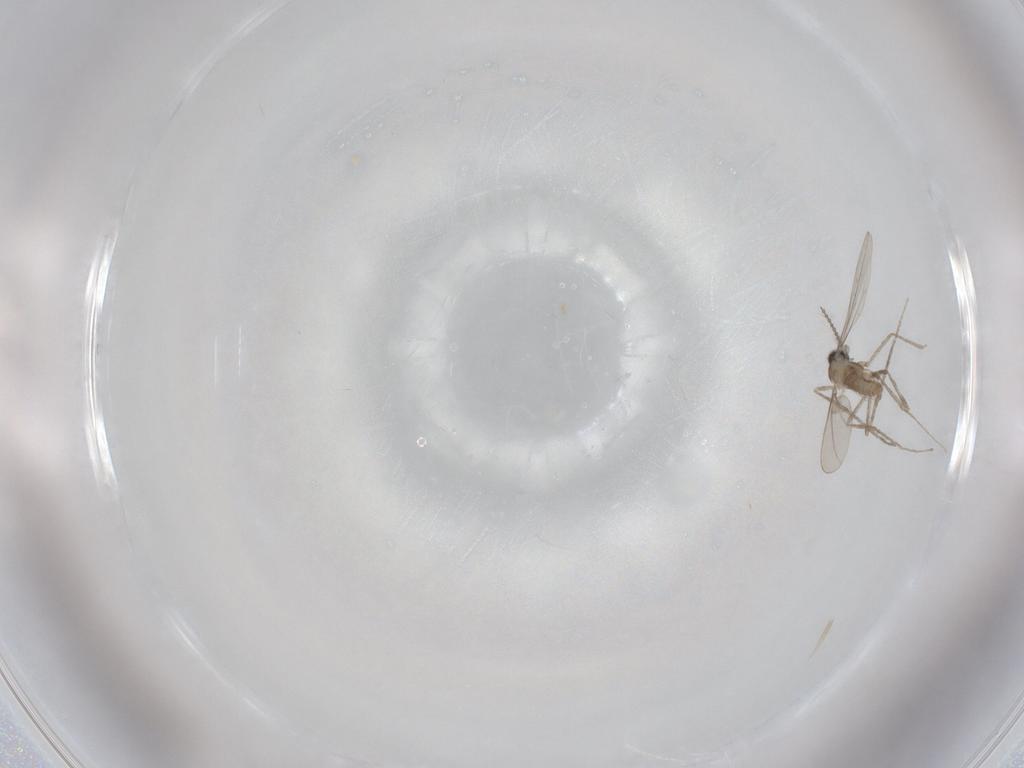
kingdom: Animalia
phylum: Arthropoda
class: Insecta
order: Diptera
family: Cecidomyiidae
